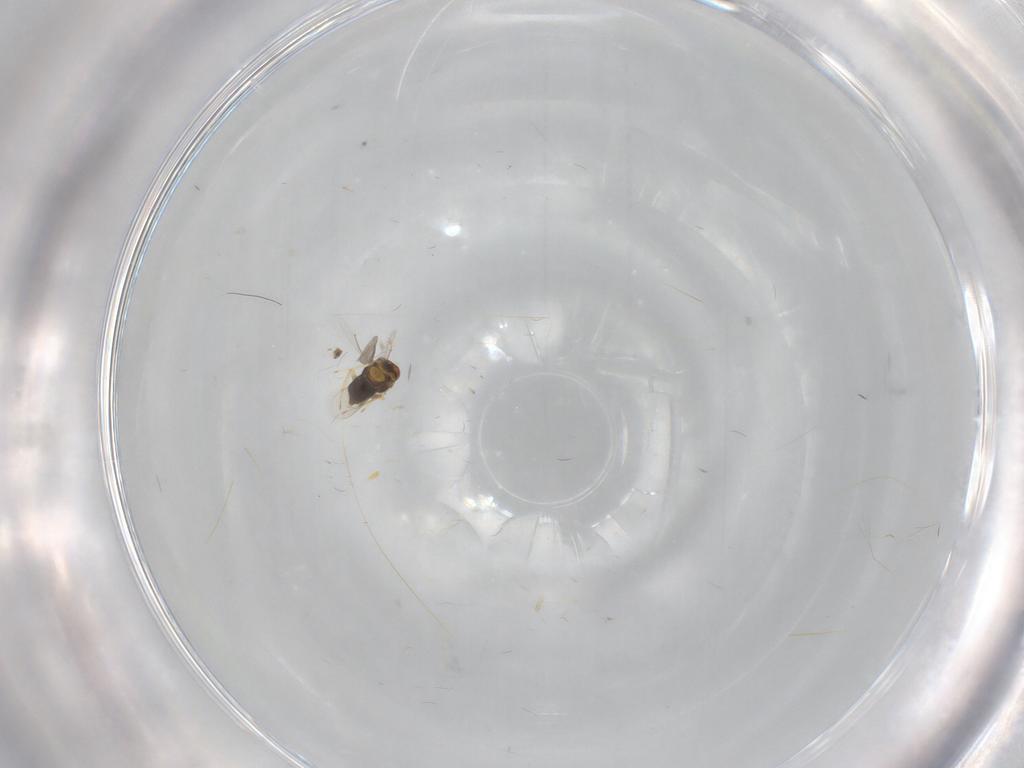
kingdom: Animalia
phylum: Arthropoda
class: Insecta
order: Hymenoptera
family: Aphelinidae
